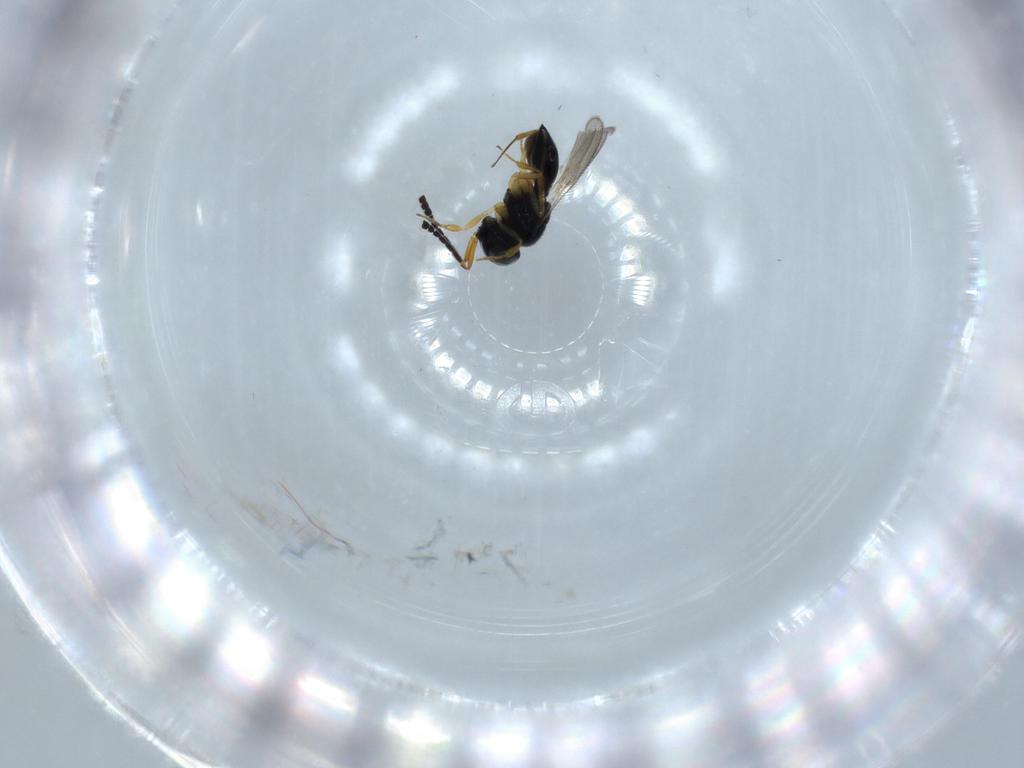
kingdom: Animalia
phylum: Arthropoda
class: Insecta
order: Hymenoptera
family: Scelionidae
